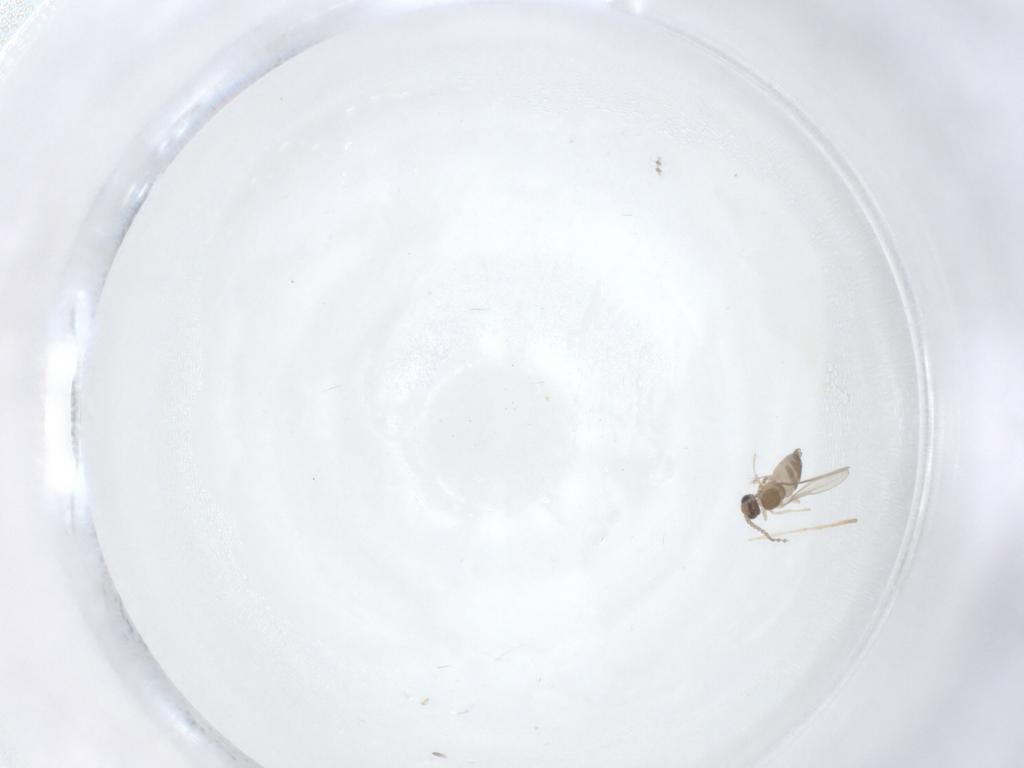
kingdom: Animalia
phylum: Arthropoda
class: Insecta
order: Diptera
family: Cecidomyiidae
